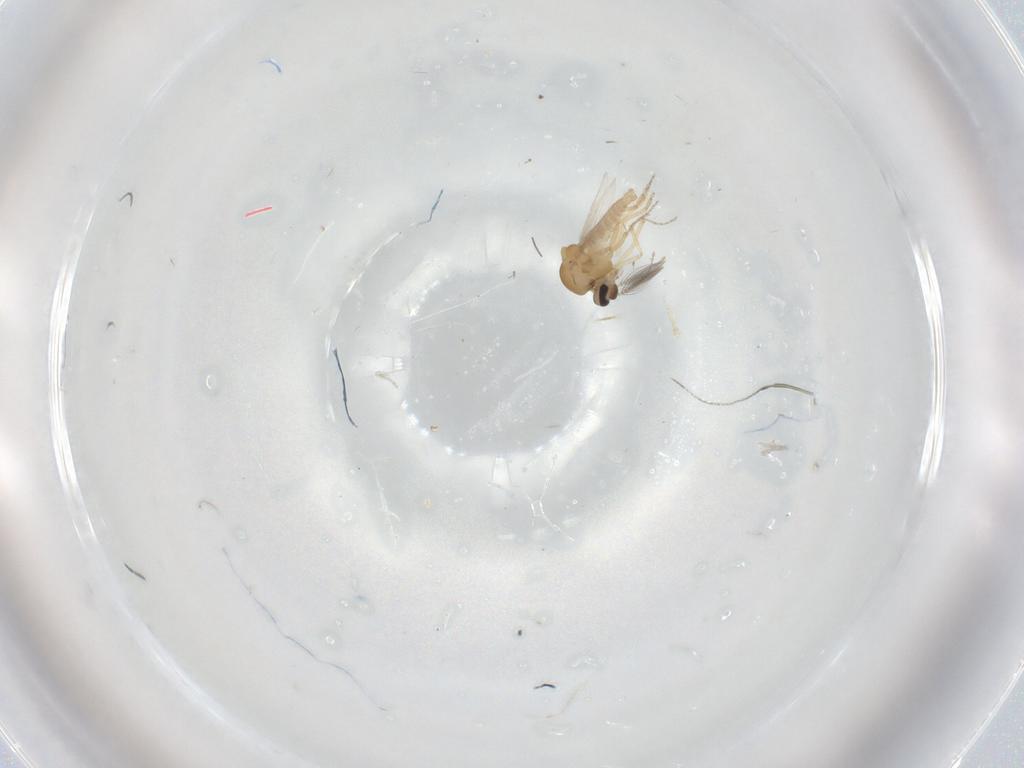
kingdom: Animalia
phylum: Arthropoda
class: Insecta
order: Diptera
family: Ceratopogonidae
